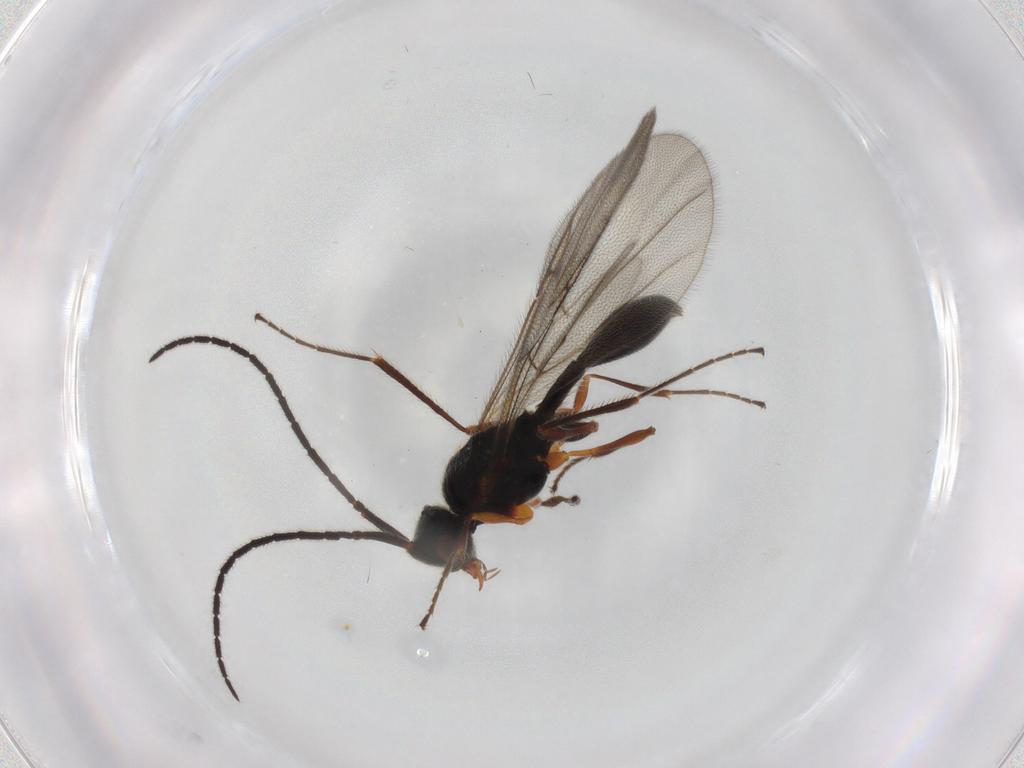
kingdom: Animalia
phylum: Arthropoda
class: Insecta
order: Hymenoptera
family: Diapriidae
